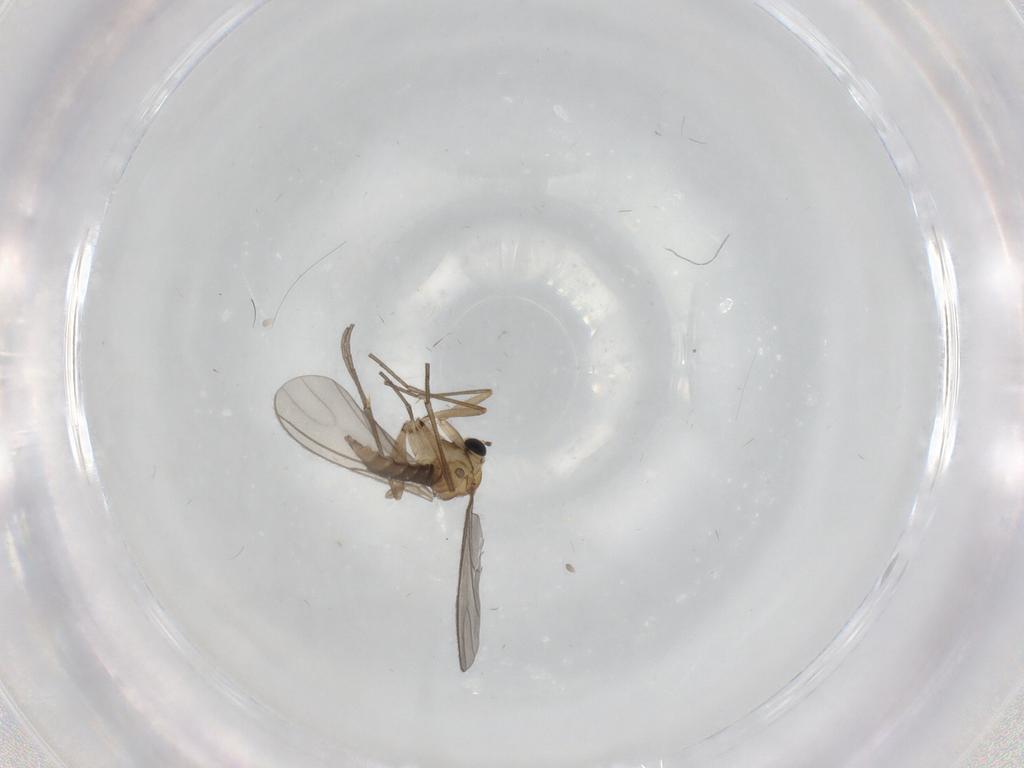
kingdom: Animalia
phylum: Arthropoda
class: Insecta
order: Diptera
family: Sciaridae
